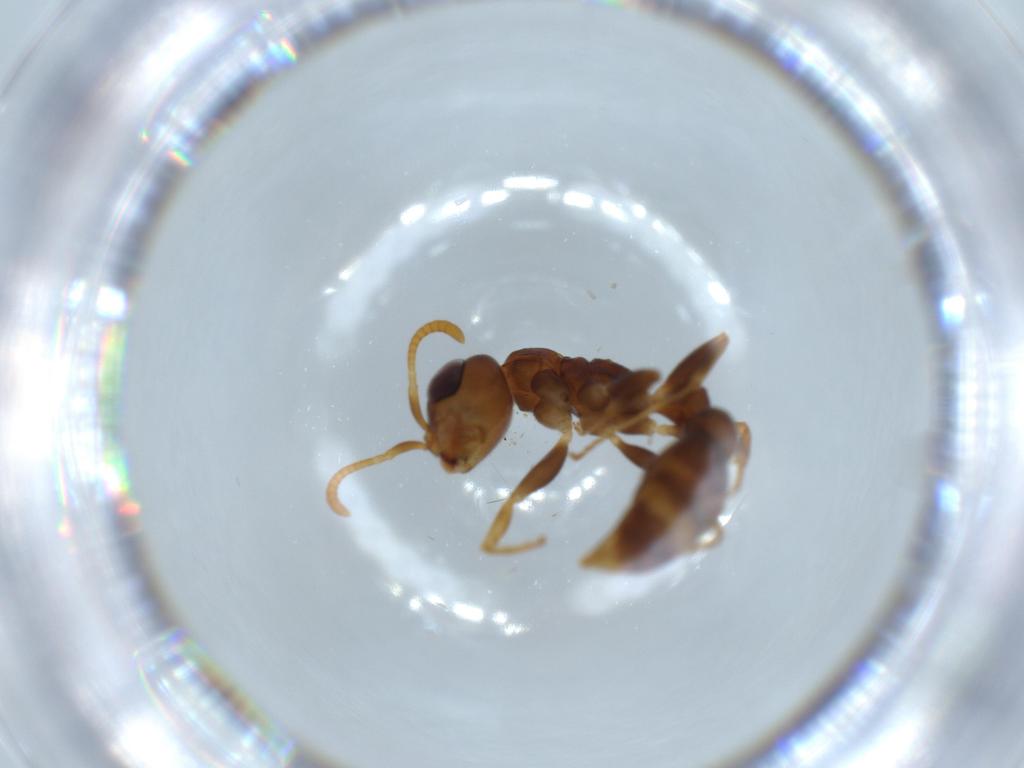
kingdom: Animalia
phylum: Arthropoda
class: Insecta
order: Hymenoptera
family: Formicidae
